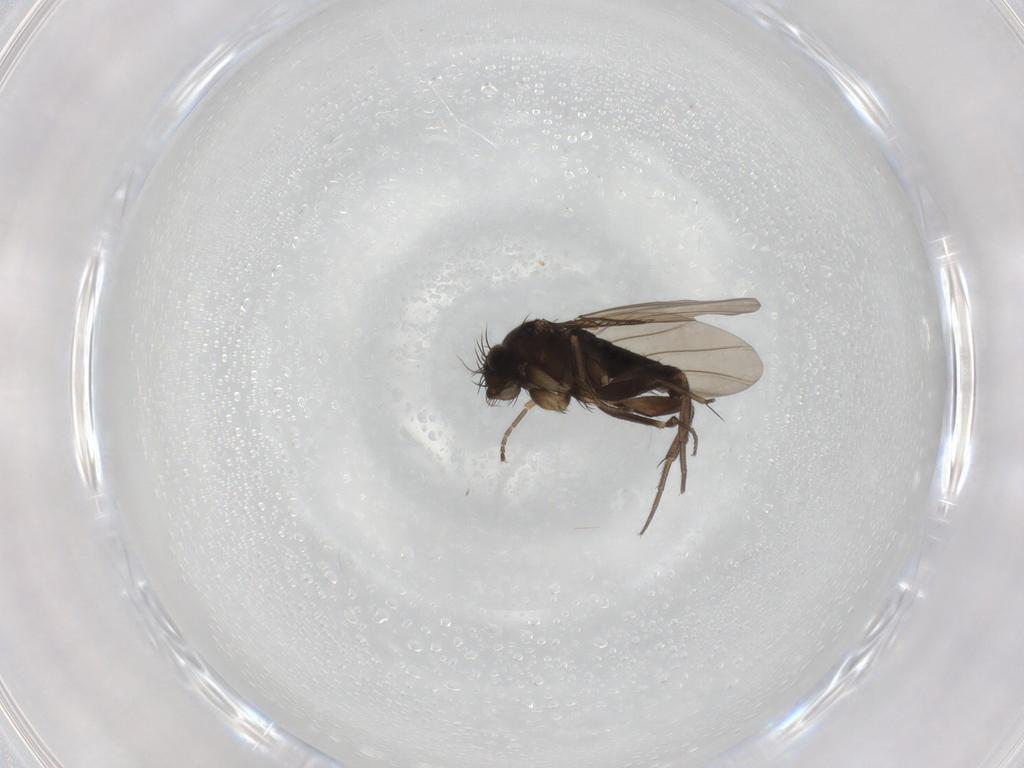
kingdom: Animalia
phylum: Arthropoda
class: Insecta
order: Diptera
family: Chironomidae
